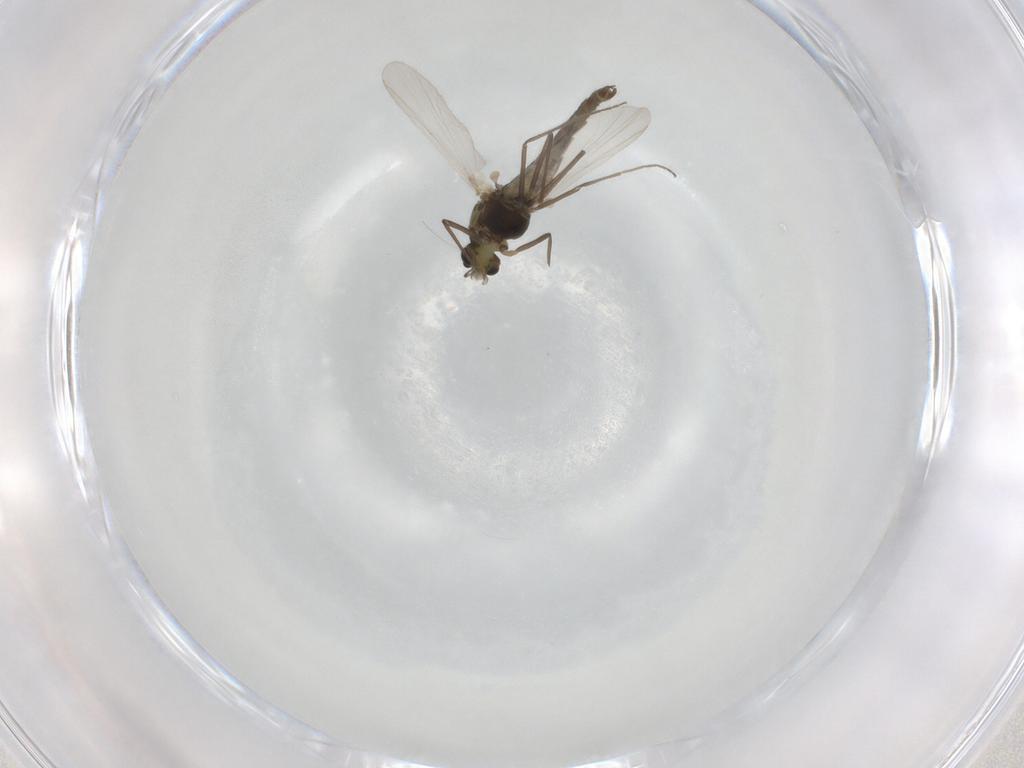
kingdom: Animalia
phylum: Arthropoda
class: Insecta
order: Diptera
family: Chironomidae
